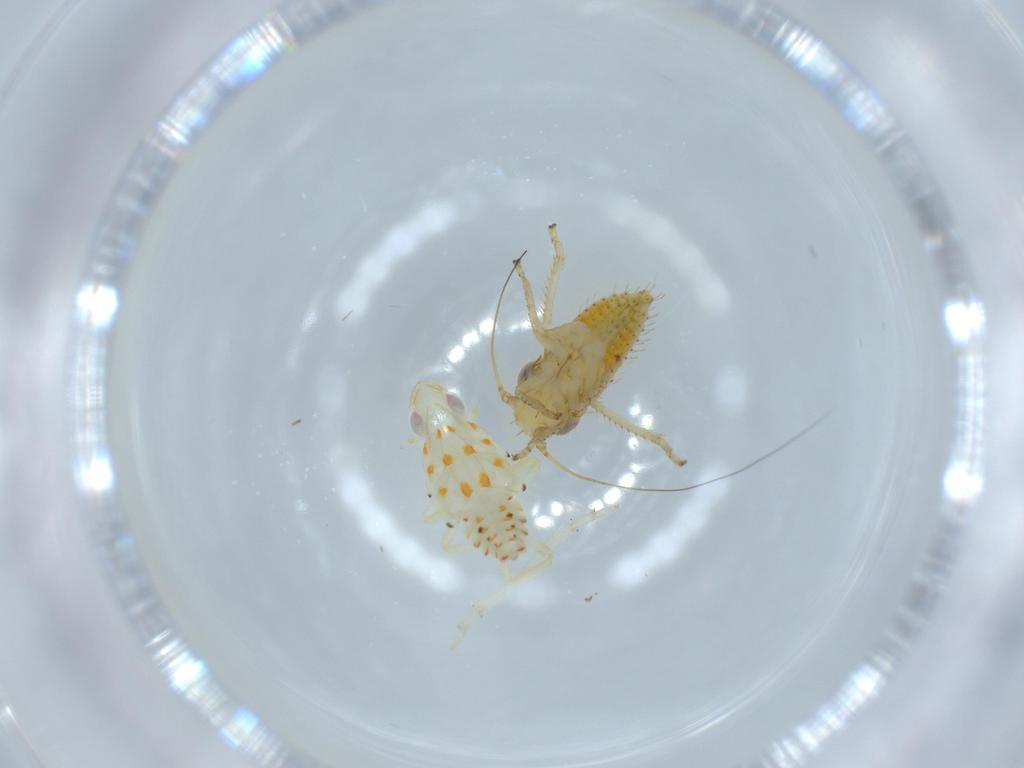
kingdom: Animalia
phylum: Arthropoda
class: Insecta
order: Hemiptera
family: Tropiduchidae
